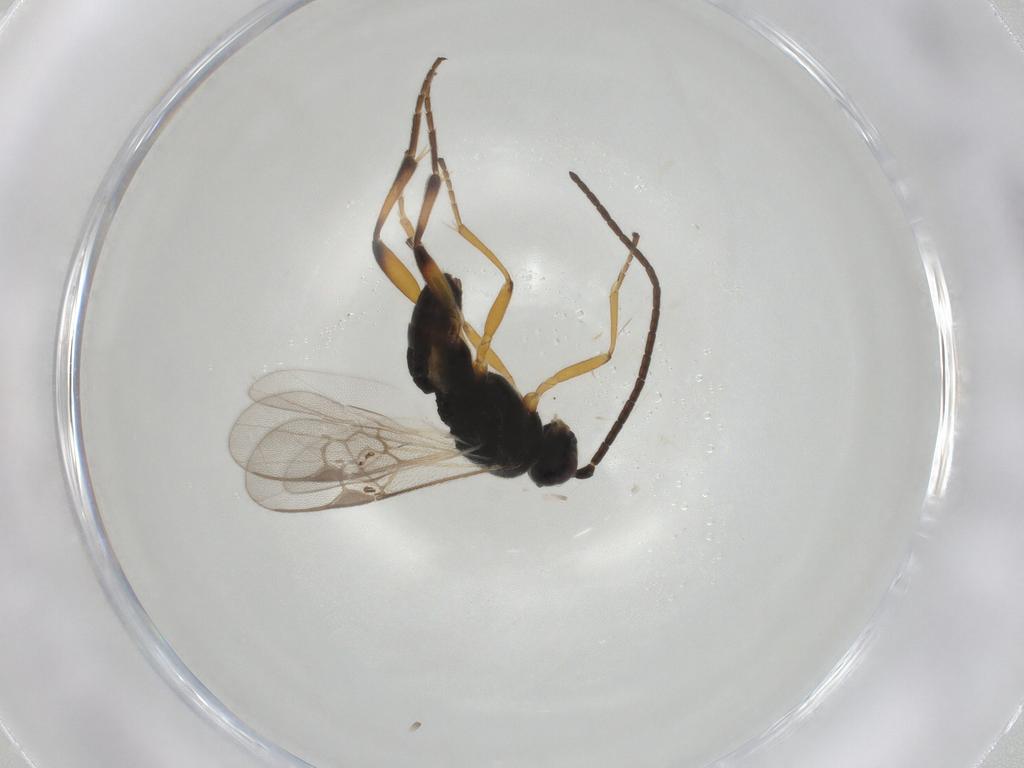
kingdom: Animalia
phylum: Arthropoda
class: Insecta
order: Hymenoptera
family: Braconidae
